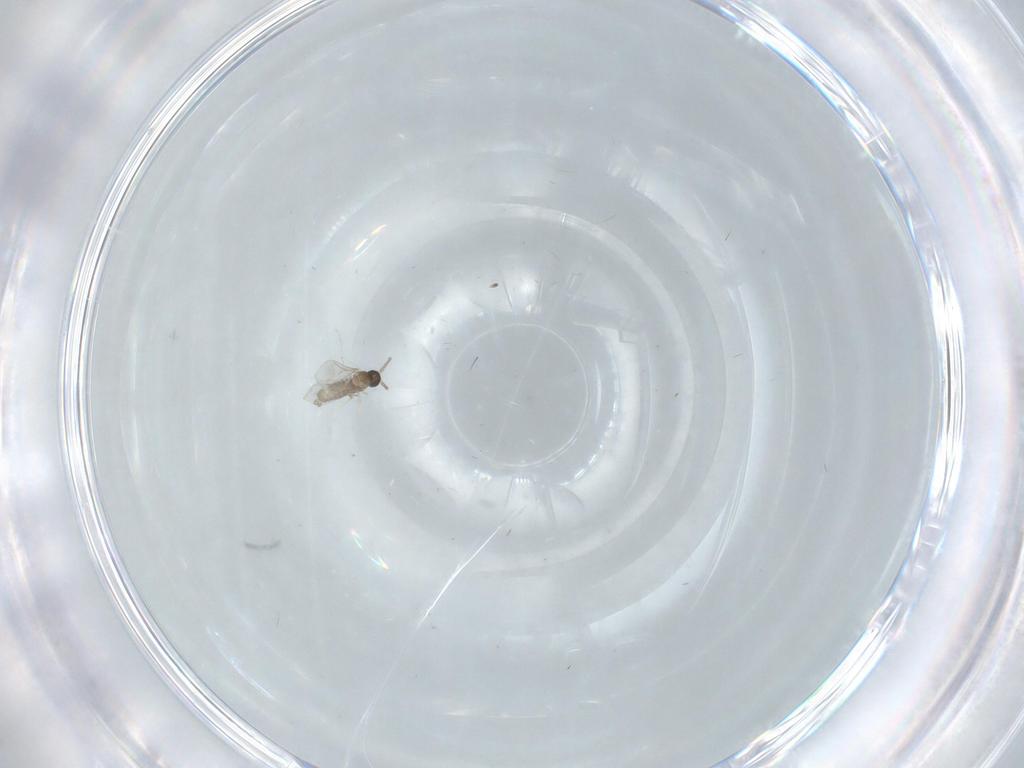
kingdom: Animalia
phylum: Arthropoda
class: Insecta
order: Diptera
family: Cecidomyiidae
